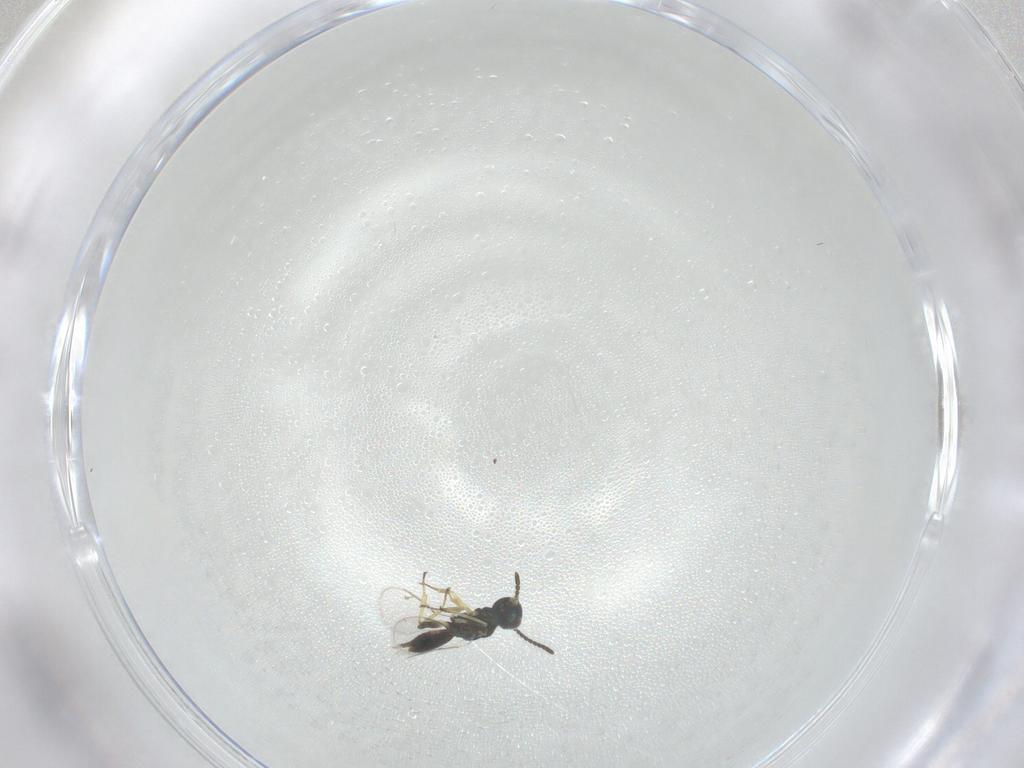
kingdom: Animalia
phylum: Arthropoda
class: Insecta
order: Hymenoptera
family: Eupelmidae
